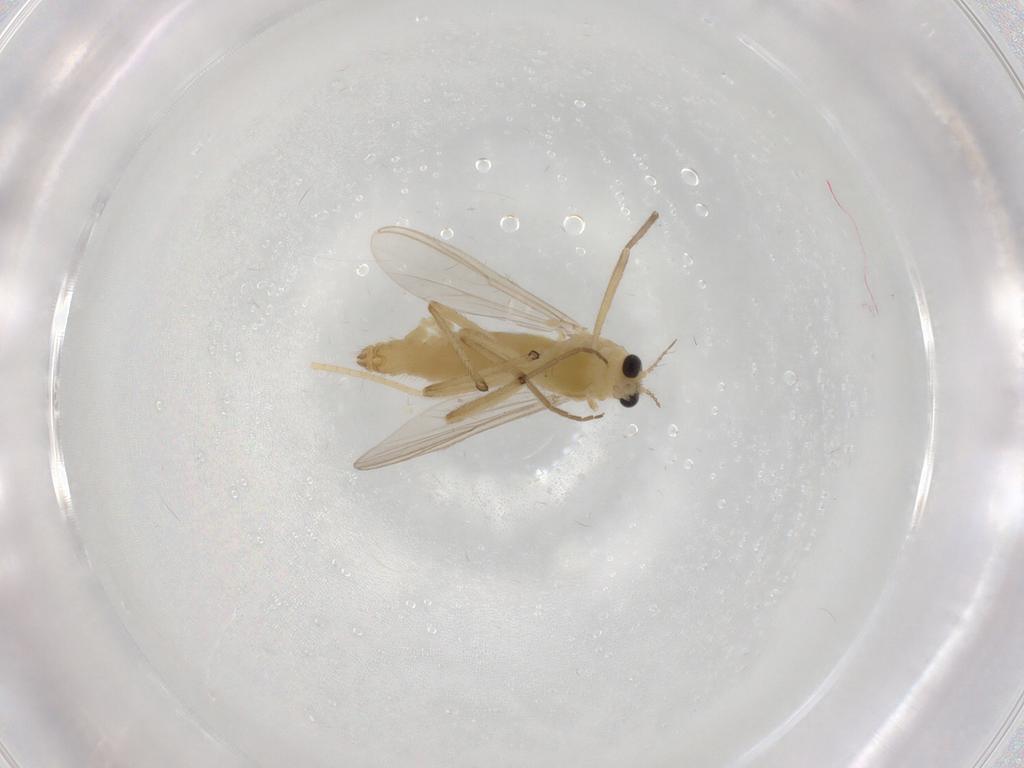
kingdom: Animalia
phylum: Arthropoda
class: Insecta
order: Diptera
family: Chironomidae
